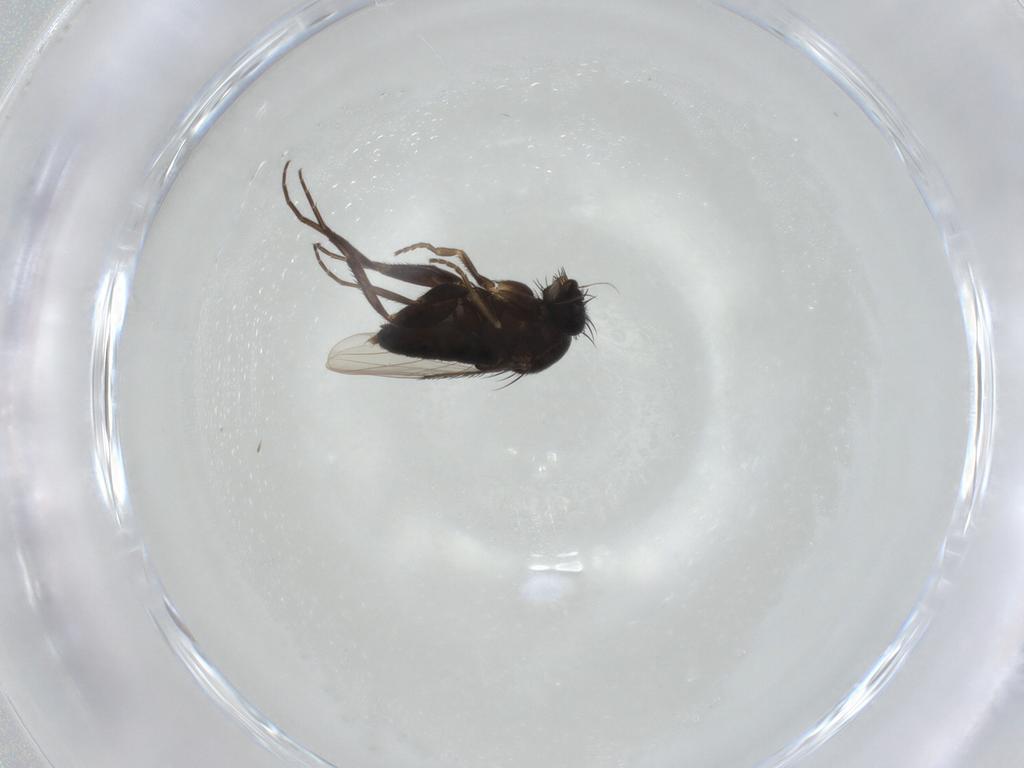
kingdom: Animalia
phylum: Arthropoda
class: Insecta
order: Diptera
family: Phoridae
